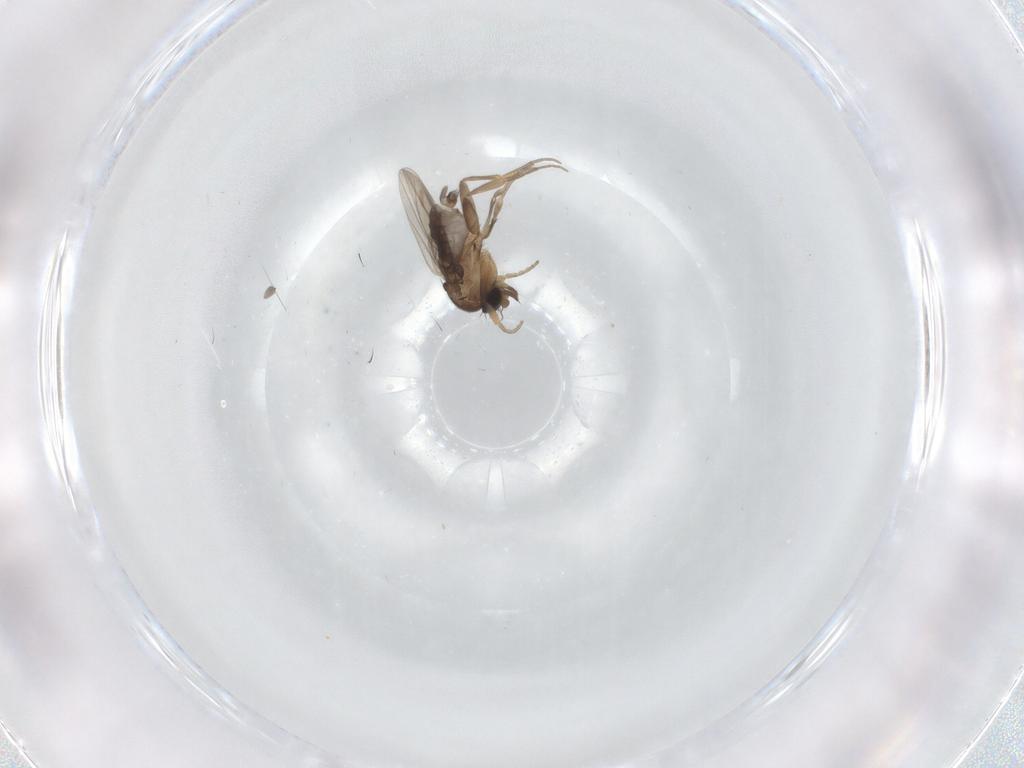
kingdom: Animalia
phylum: Arthropoda
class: Insecta
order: Diptera
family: Phoridae
